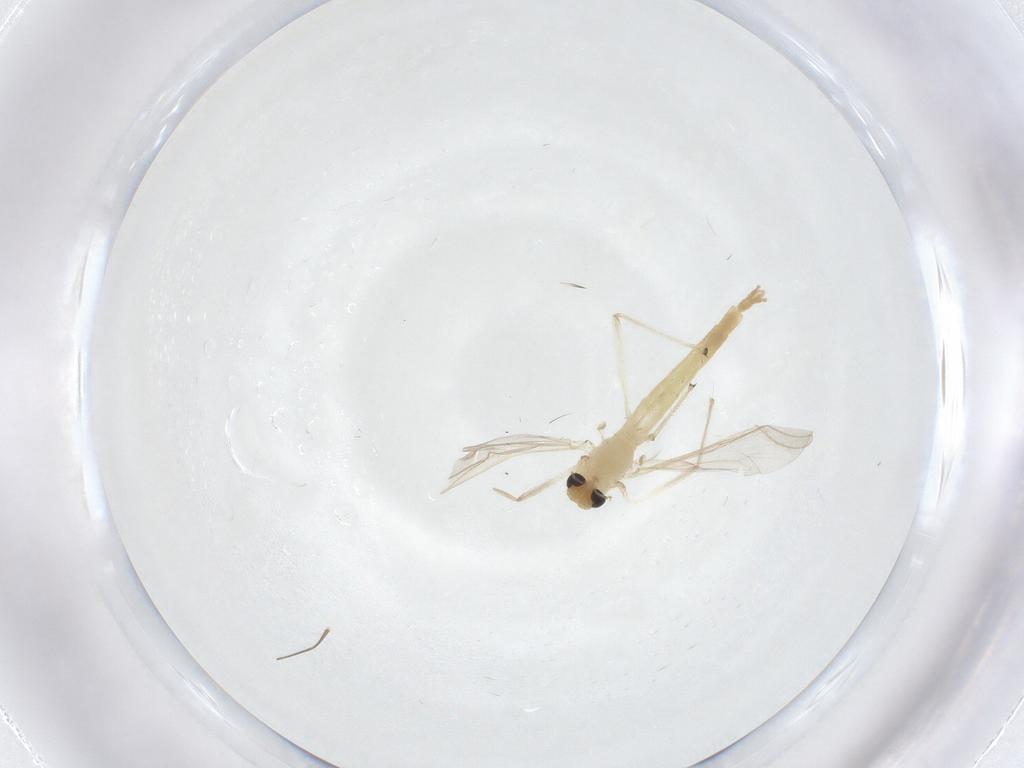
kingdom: Animalia
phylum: Arthropoda
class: Insecta
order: Diptera
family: Chironomidae
